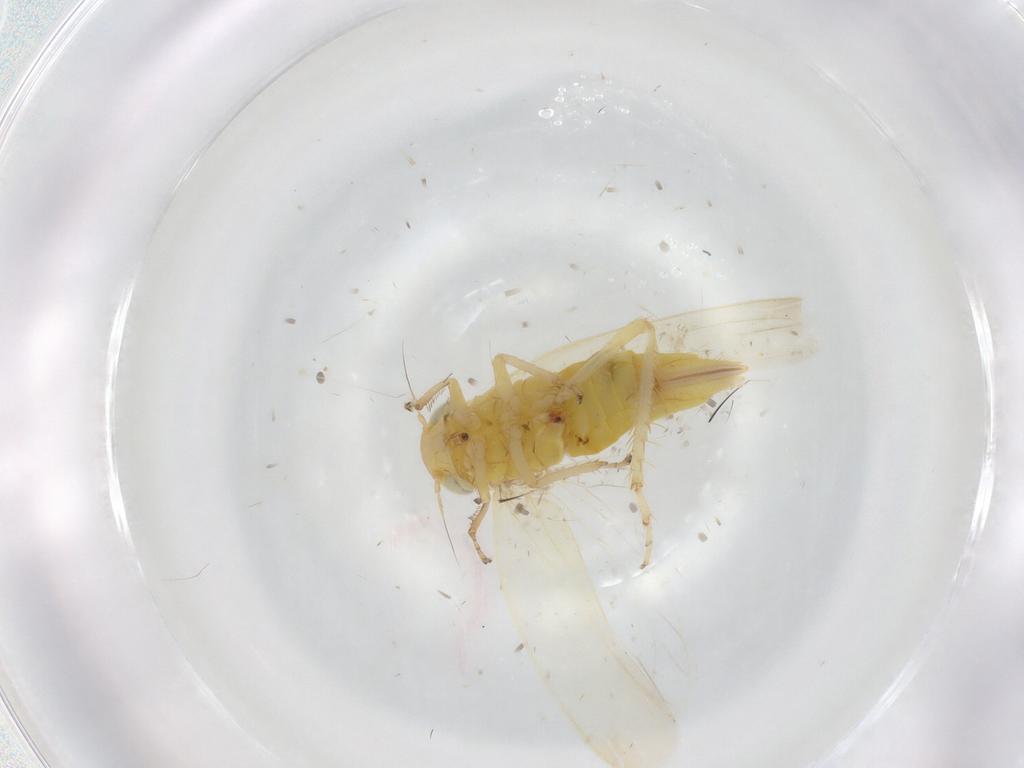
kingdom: Animalia
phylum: Arthropoda
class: Insecta
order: Hemiptera
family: Cicadellidae
